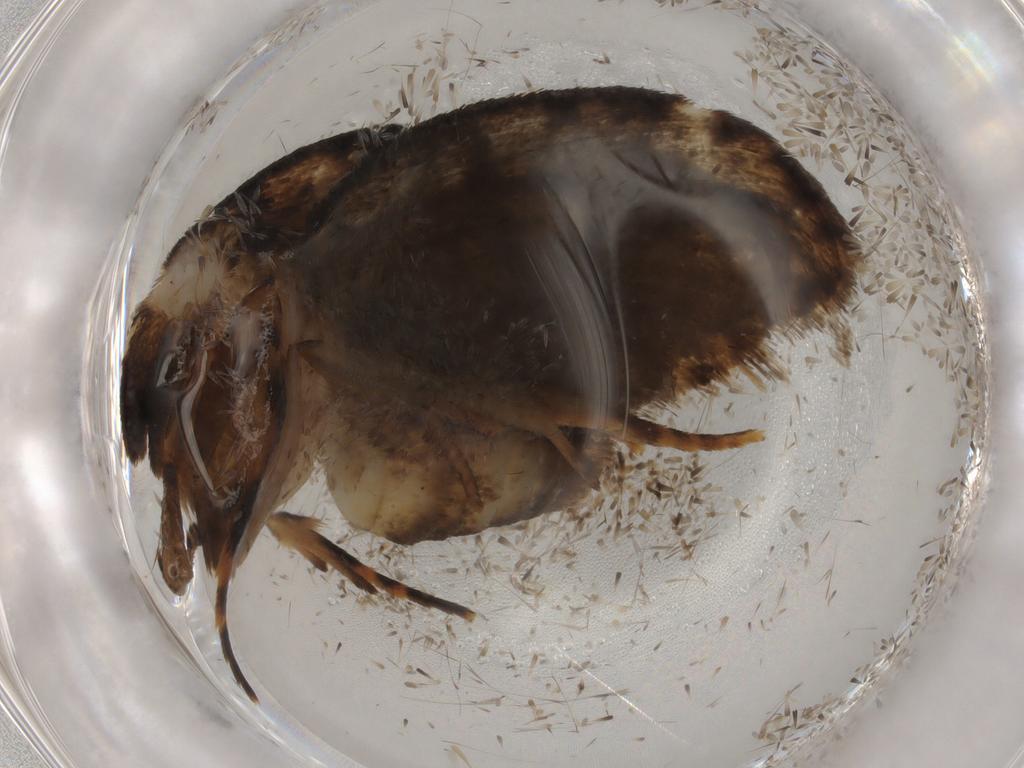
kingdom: Animalia
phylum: Arthropoda
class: Insecta
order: Lepidoptera
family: Tineidae
